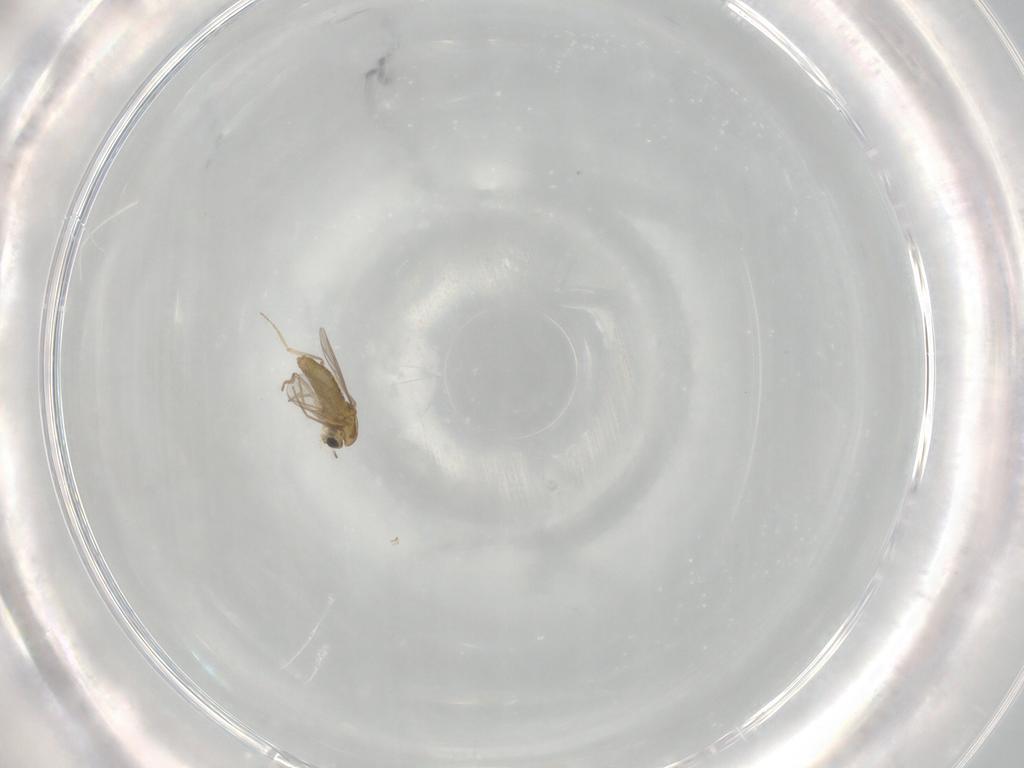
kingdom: Animalia
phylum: Arthropoda
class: Insecta
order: Diptera
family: Chironomidae
